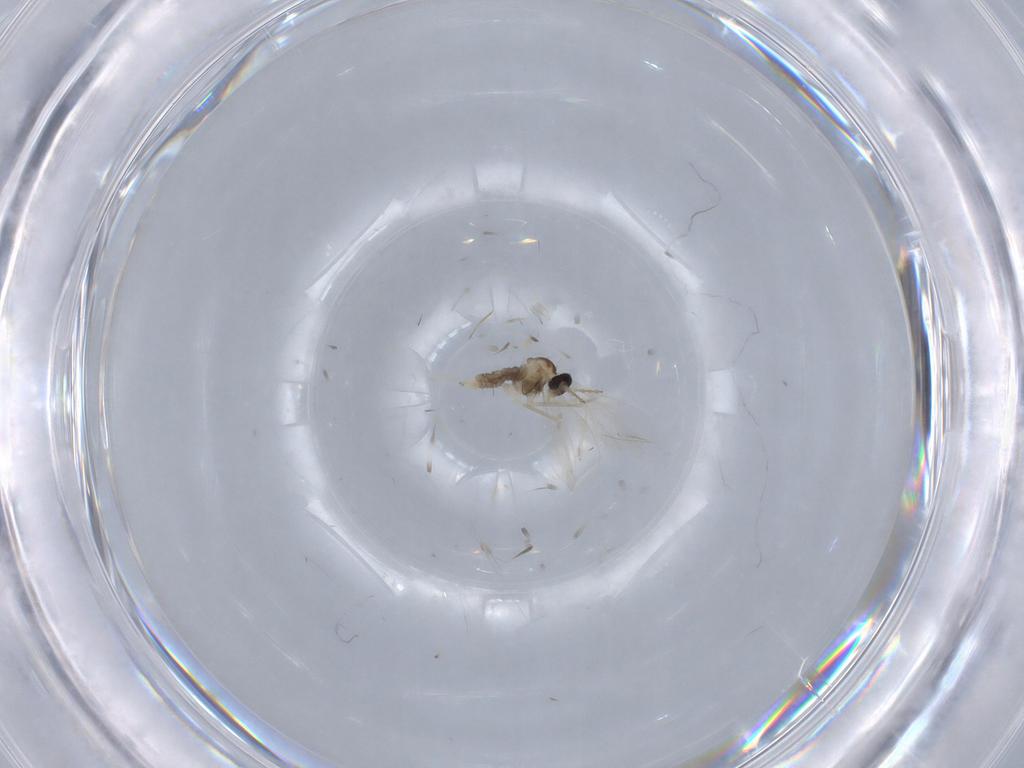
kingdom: Animalia
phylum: Arthropoda
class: Insecta
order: Diptera
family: Cecidomyiidae
